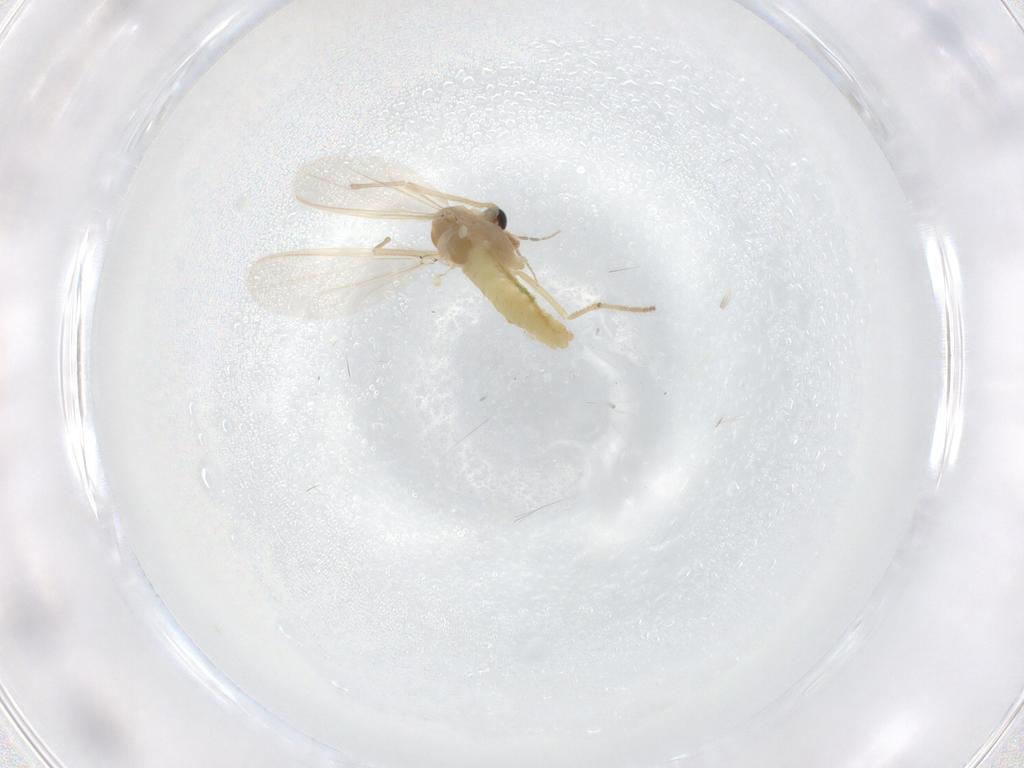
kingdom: Animalia
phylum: Arthropoda
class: Insecta
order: Diptera
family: Chironomidae
